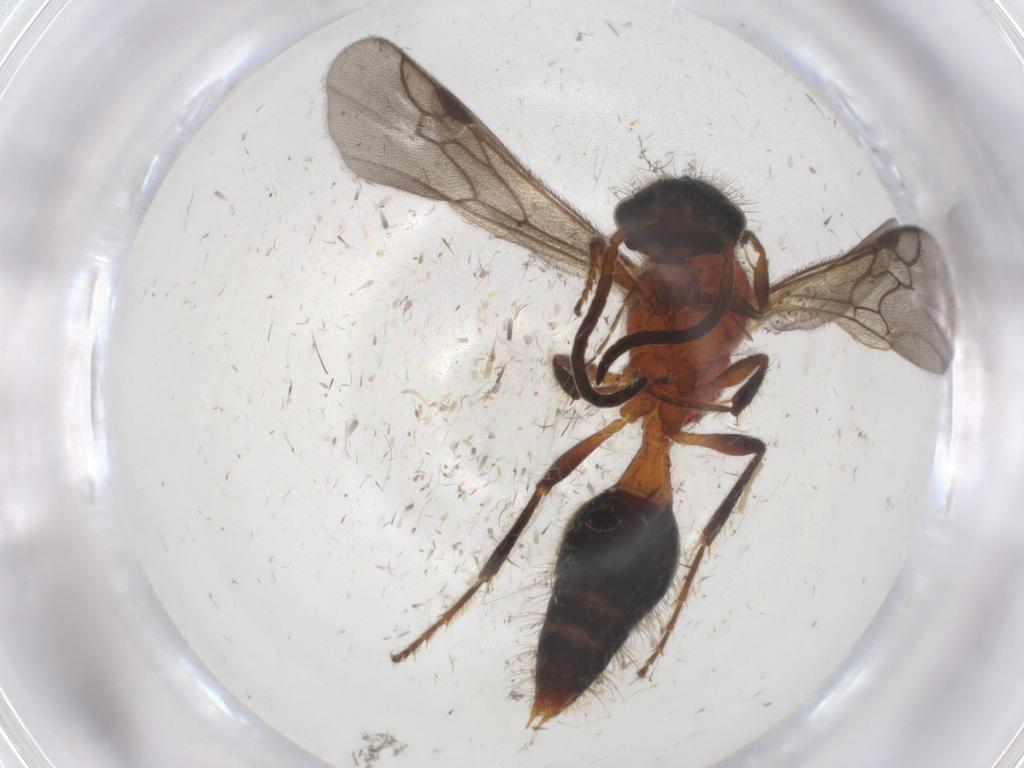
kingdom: Animalia
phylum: Arthropoda
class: Insecta
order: Hymenoptera
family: Mutillidae
